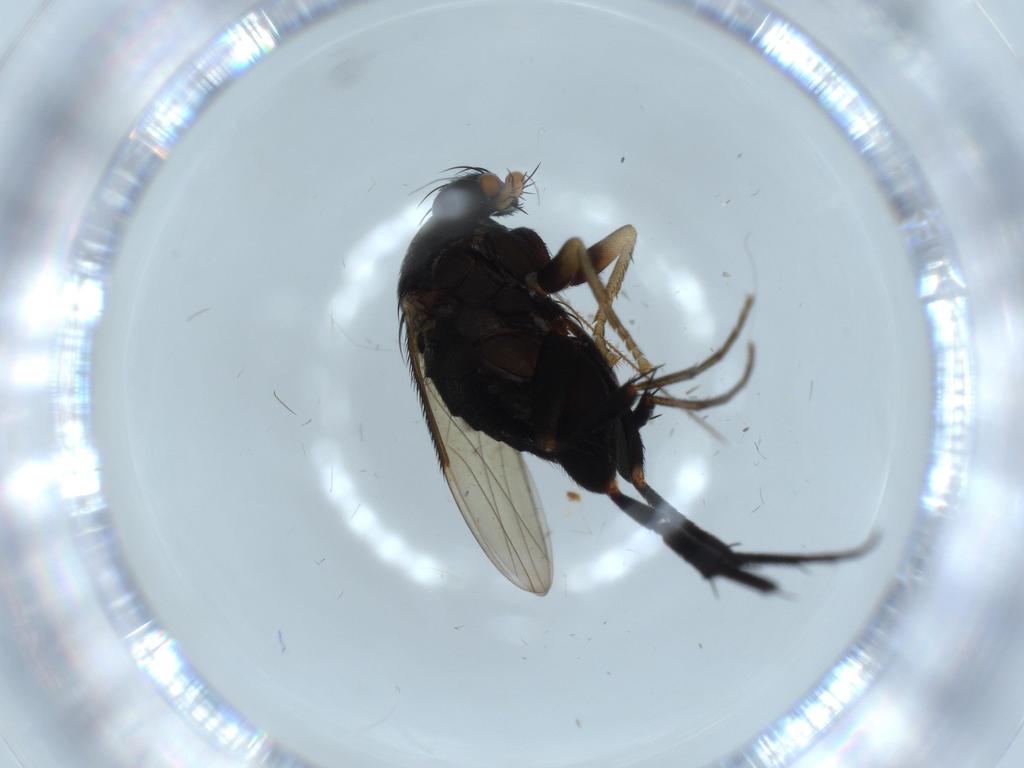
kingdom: Animalia
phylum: Arthropoda
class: Insecta
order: Diptera
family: Phoridae
